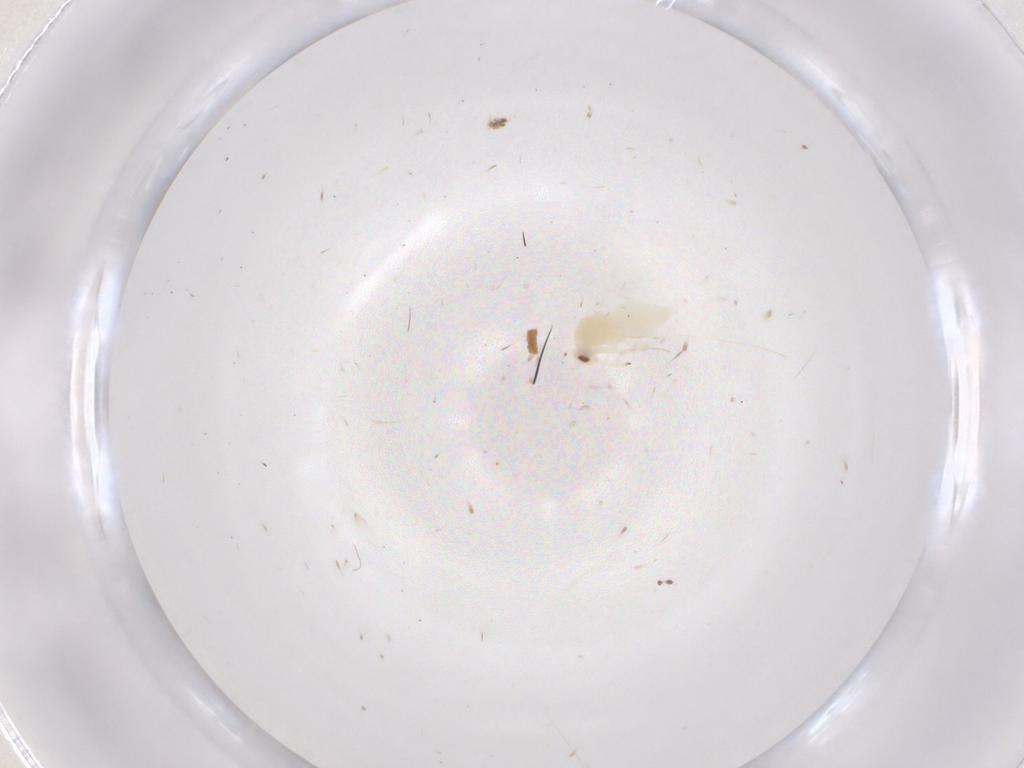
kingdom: Animalia
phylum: Arthropoda
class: Insecta
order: Hemiptera
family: Aleyrodidae
